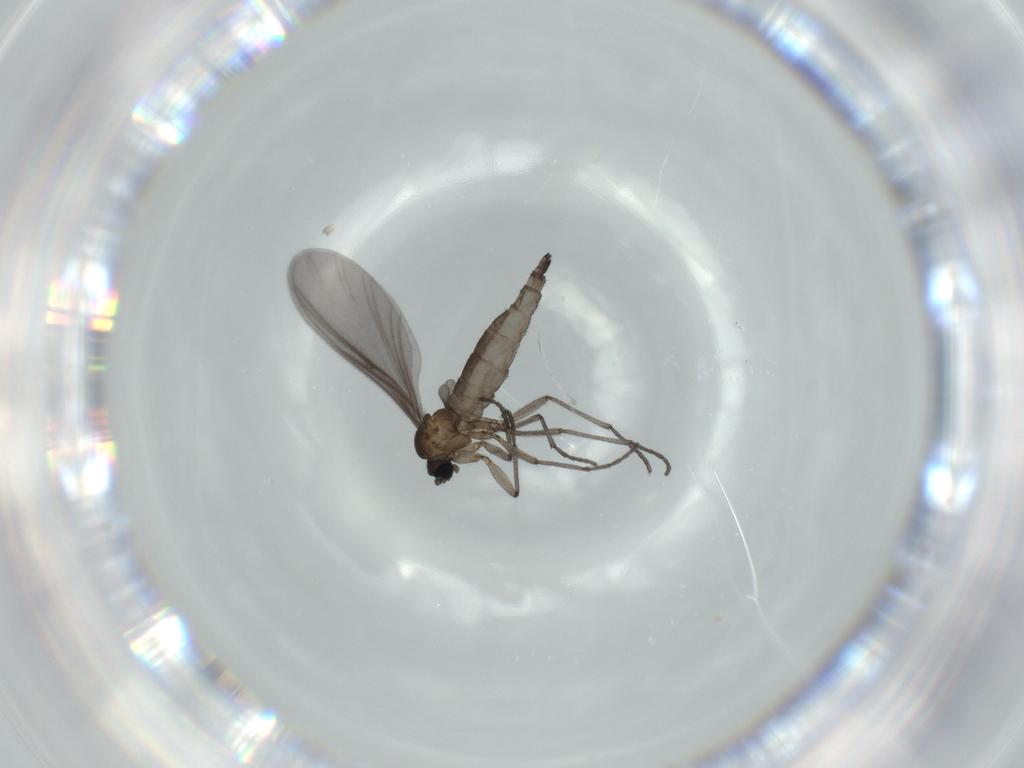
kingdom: Animalia
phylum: Arthropoda
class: Insecta
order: Diptera
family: Sciaridae
